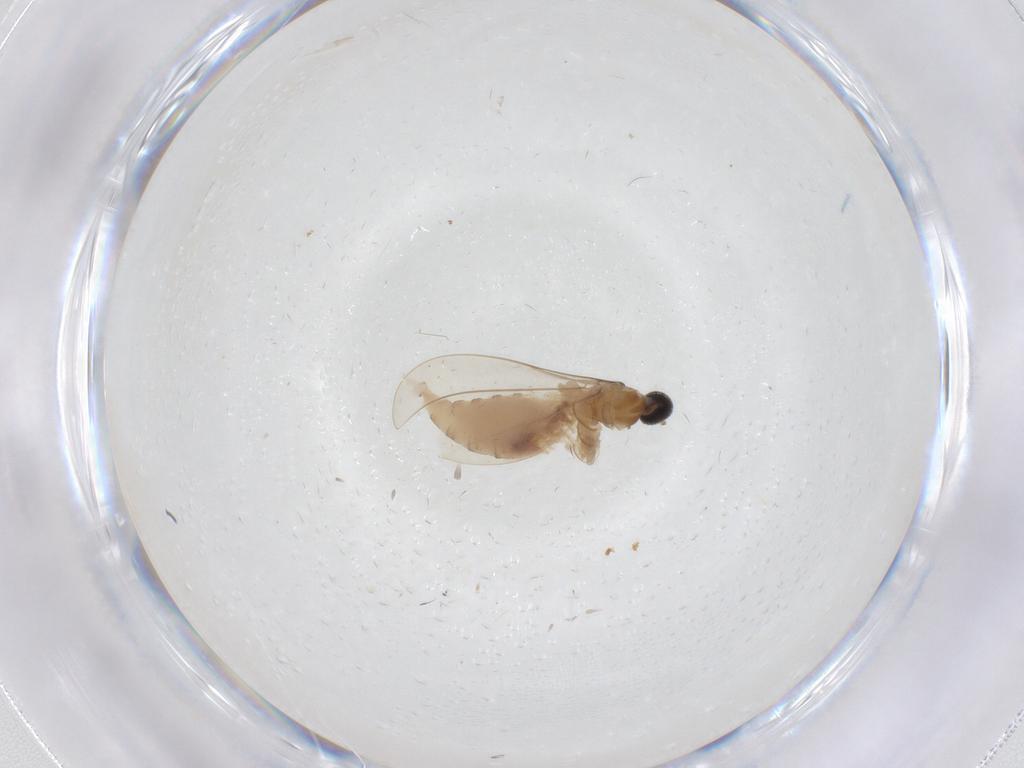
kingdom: Animalia
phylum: Arthropoda
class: Insecta
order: Diptera
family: Cecidomyiidae
